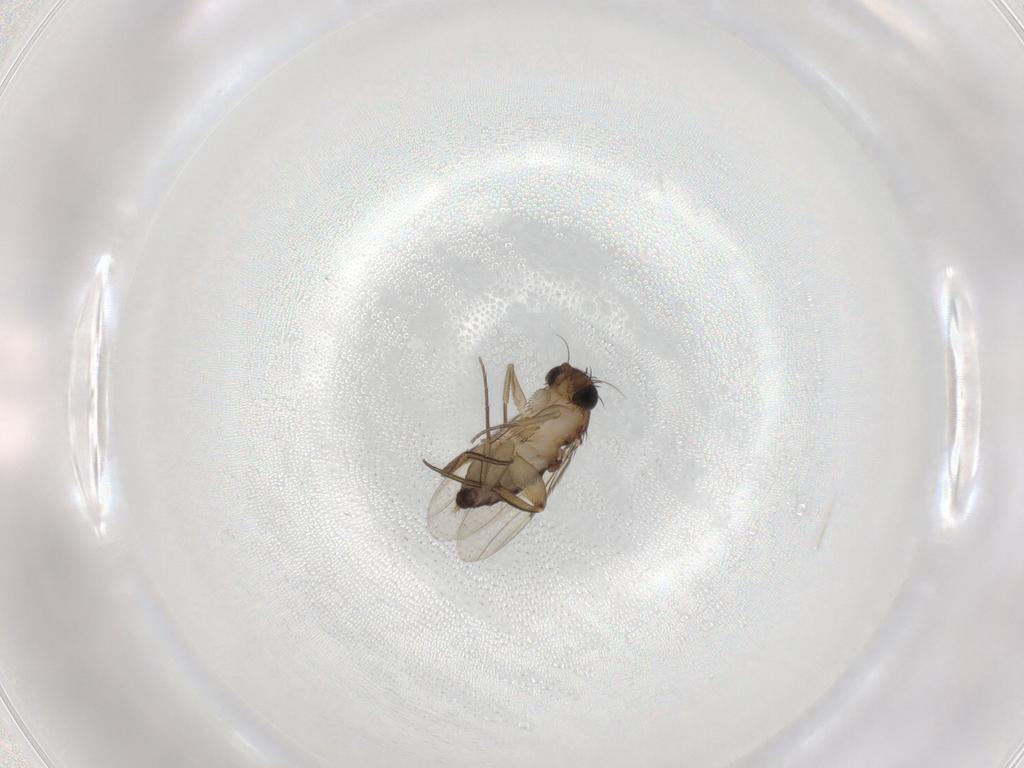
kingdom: Animalia
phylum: Arthropoda
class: Insecta
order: Diptera
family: Phoridae
